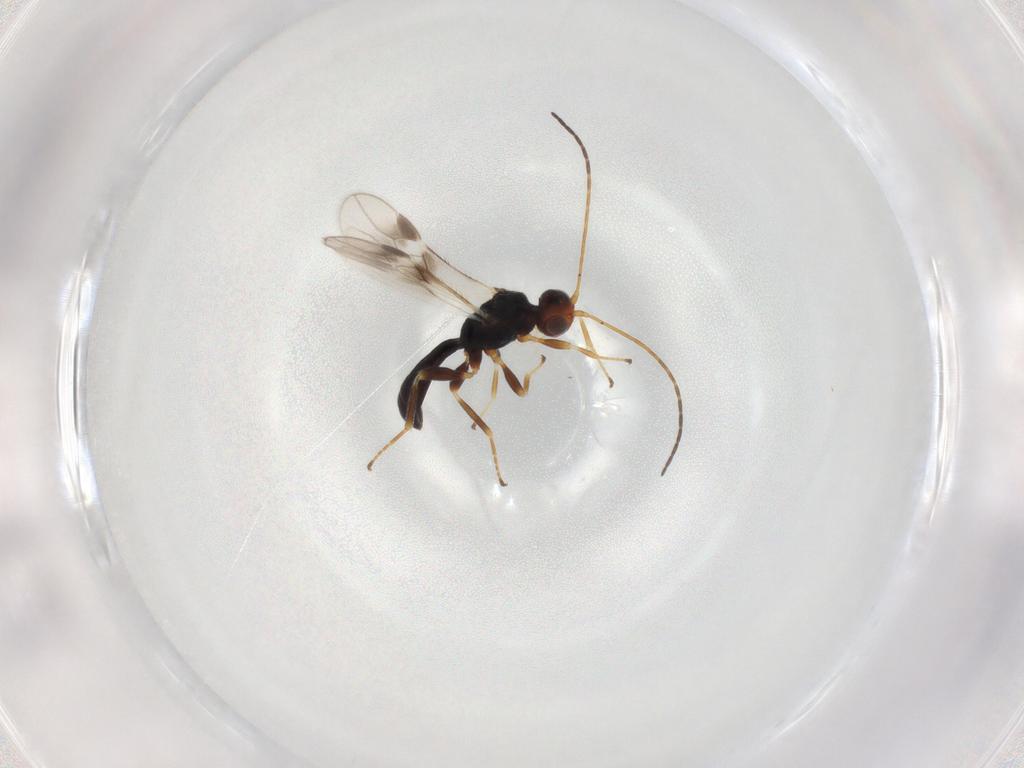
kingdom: Animalia
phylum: Arthropoda
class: Insecta
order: Hymenoptera
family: Braconidae
